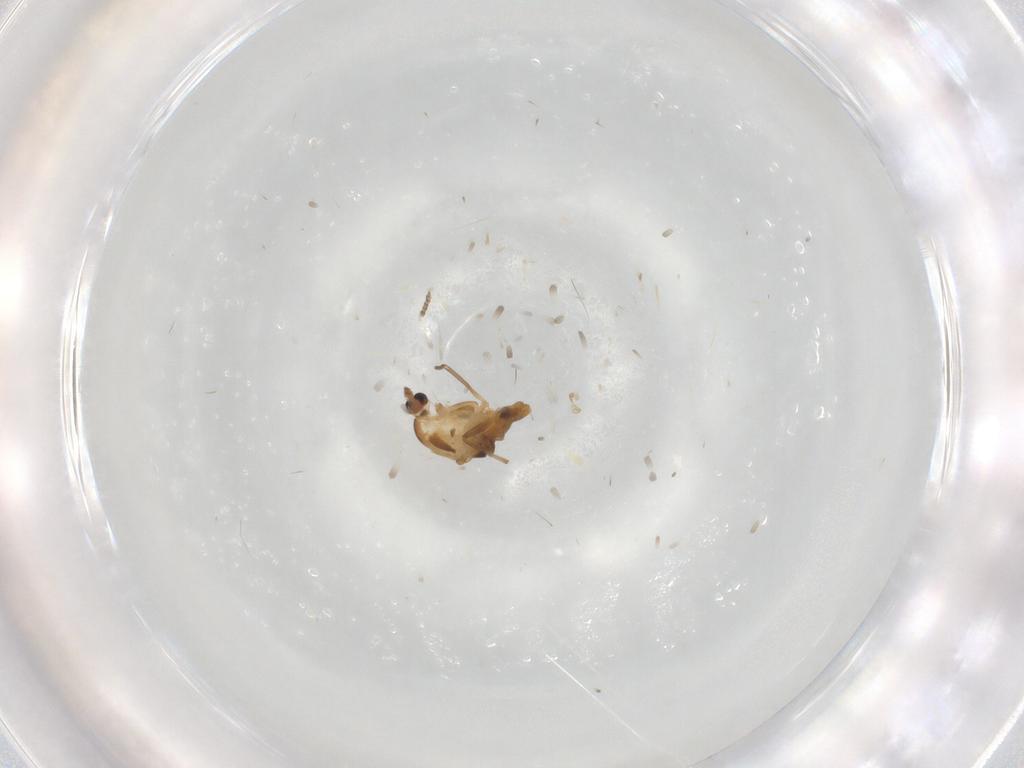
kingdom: Animalia
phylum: Arthropoda
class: Insecta
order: Diptera
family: Chironomidae
